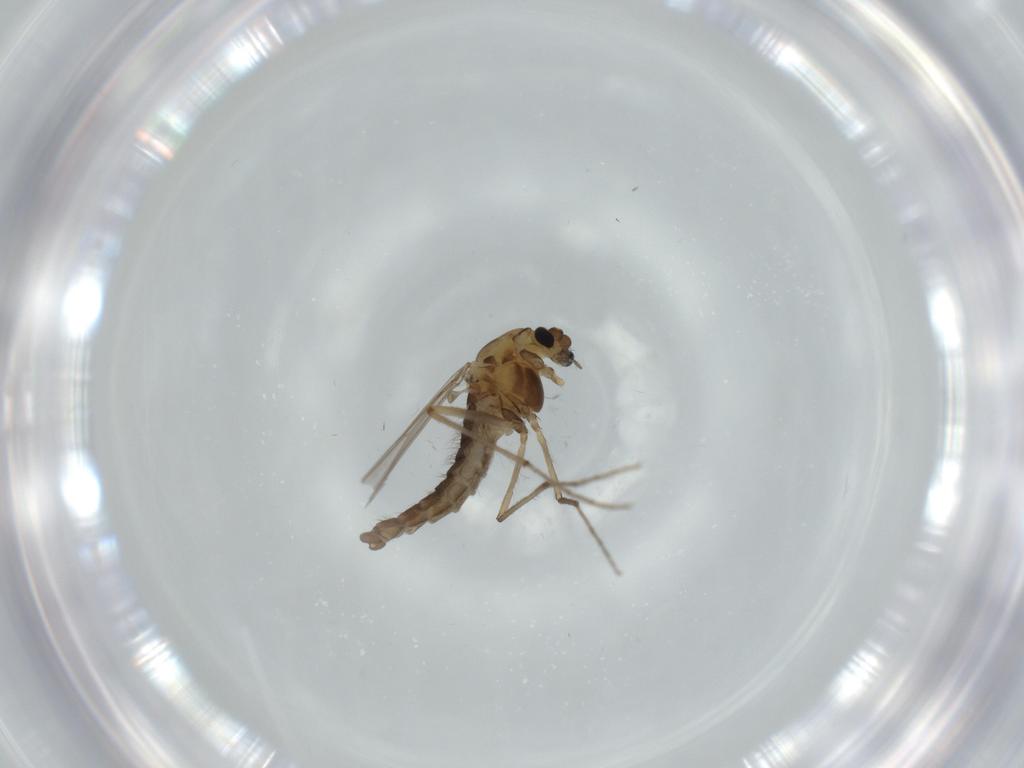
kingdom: Animalia
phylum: Arthropoda
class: Insecta
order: Diptera
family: Chironomidae
